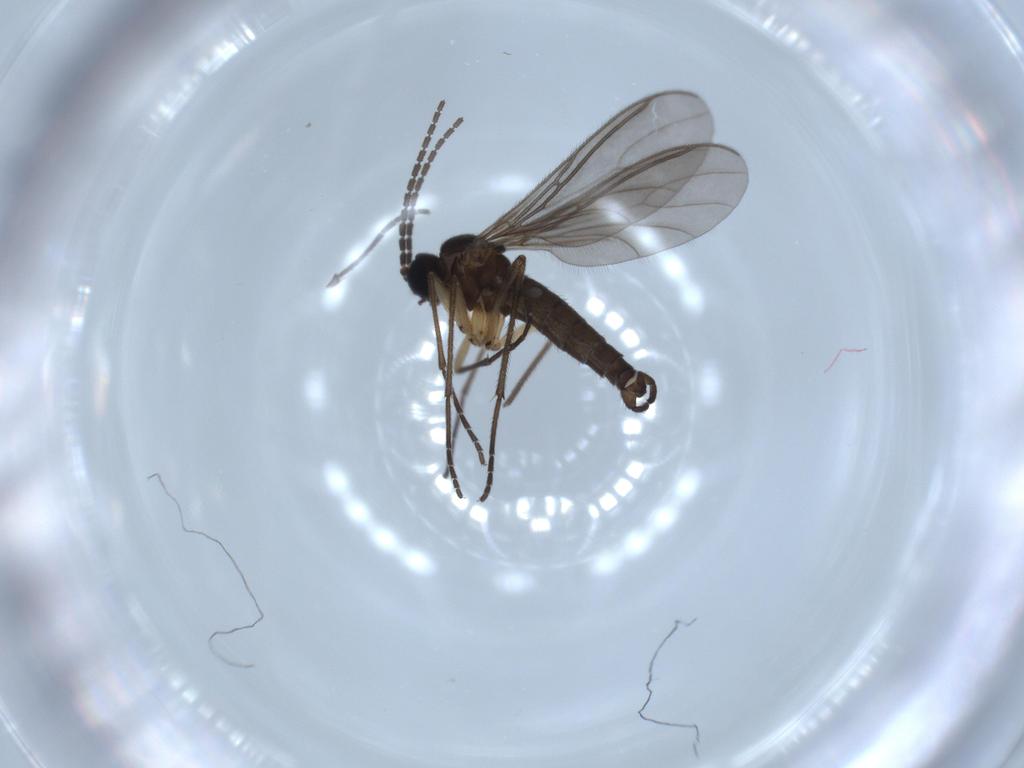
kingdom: Animalia
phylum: Arthropoda
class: Insecta
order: Diptera
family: Sciaridae
